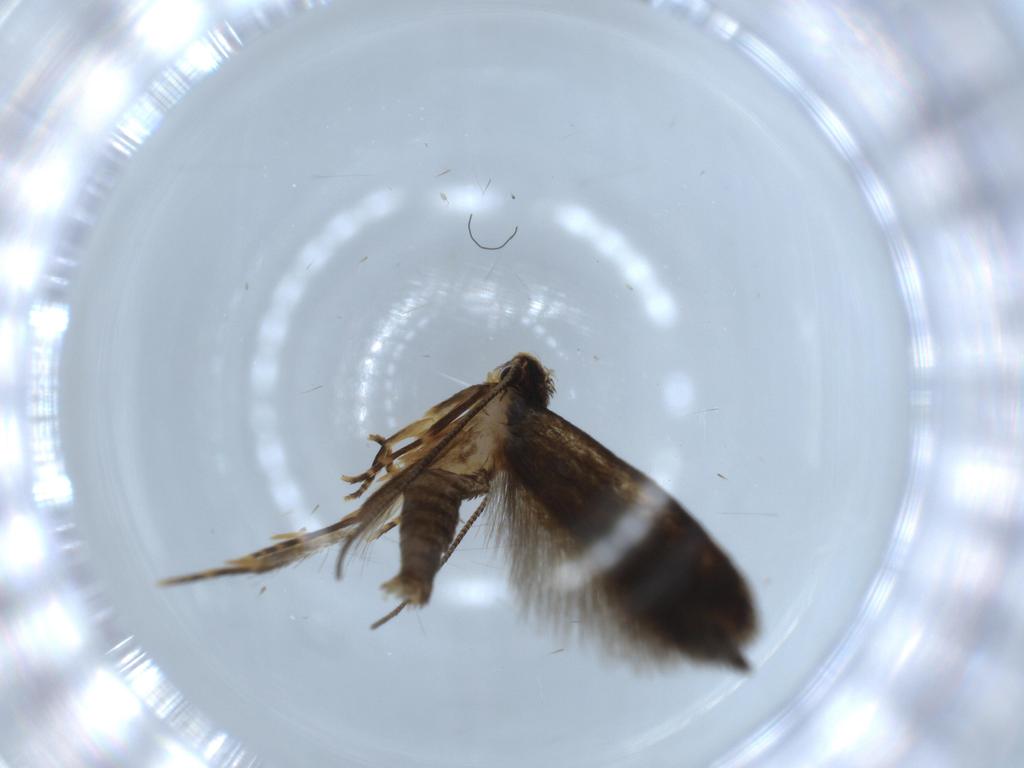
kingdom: Animalia
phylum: Arthropoda
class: Insecta
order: Lepidoptera
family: Tineidae
